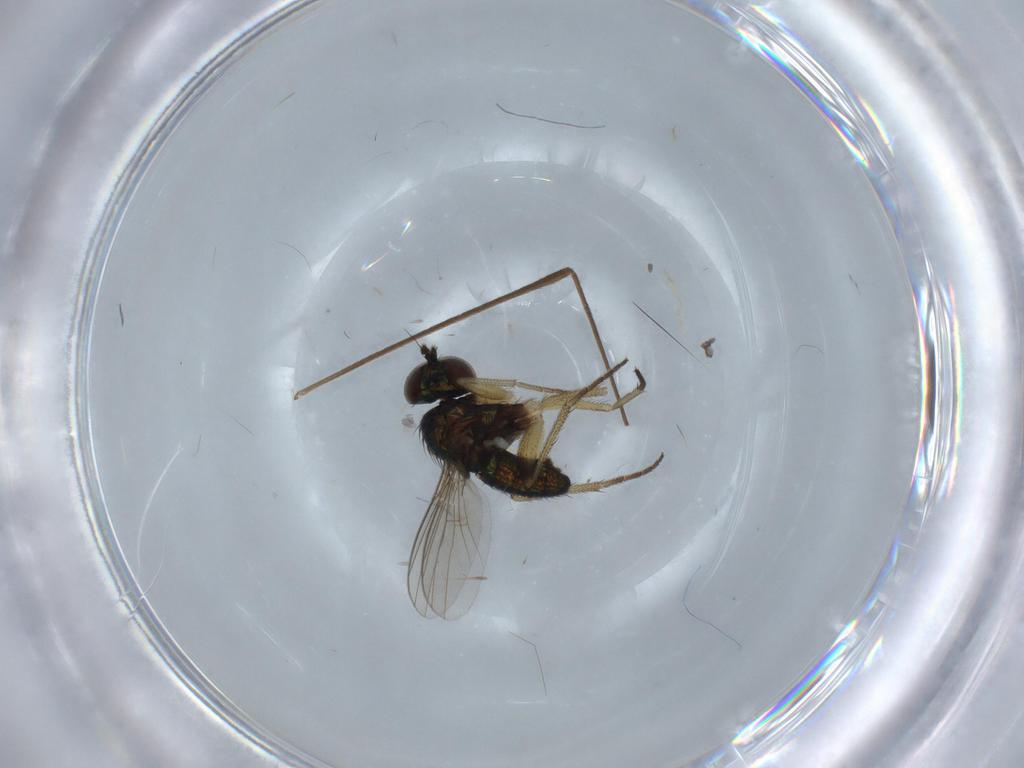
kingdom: Animalia
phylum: Arthropoda
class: Insecta
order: Diptera
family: Limoniidae
